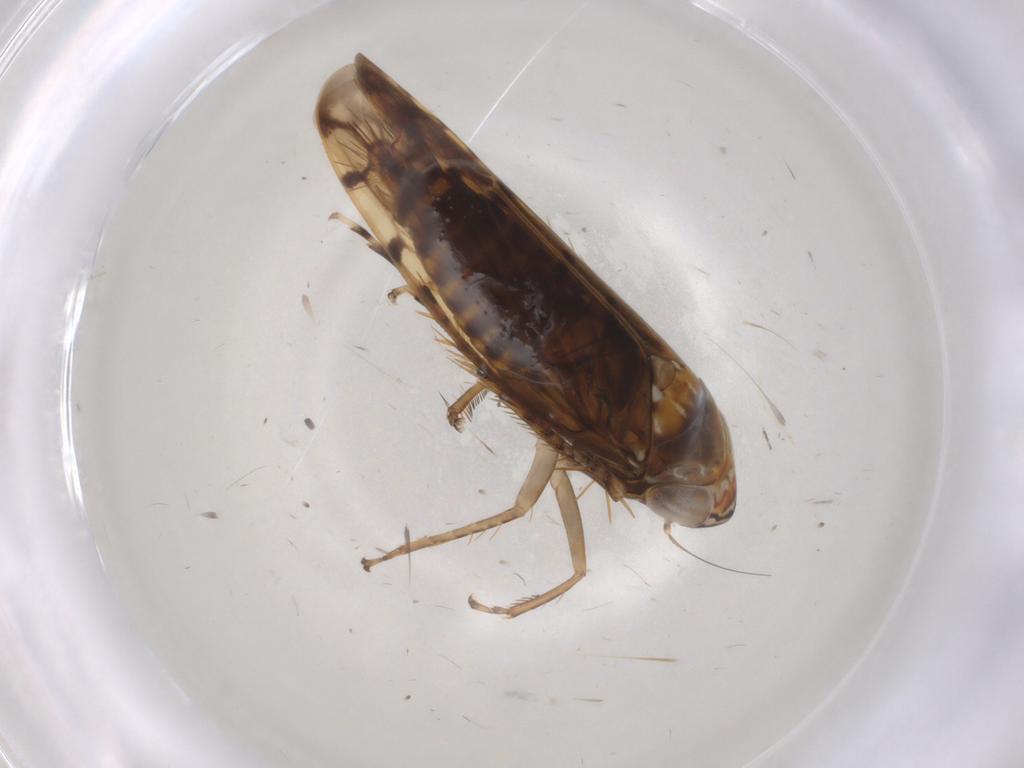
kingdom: Animalia
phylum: Arthropoda
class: Insecta
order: Hemiptera
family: Cicadellidae
